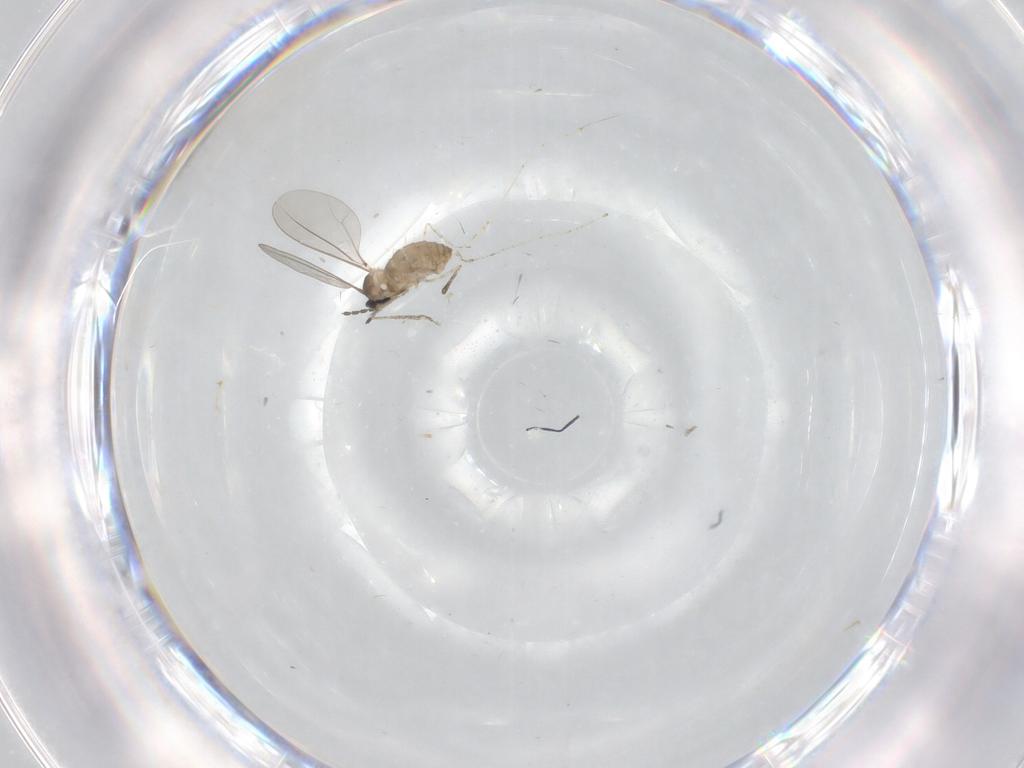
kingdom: Animalia
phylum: Arthropoda
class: Insecta
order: Diptera
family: Cecidomyiidae
